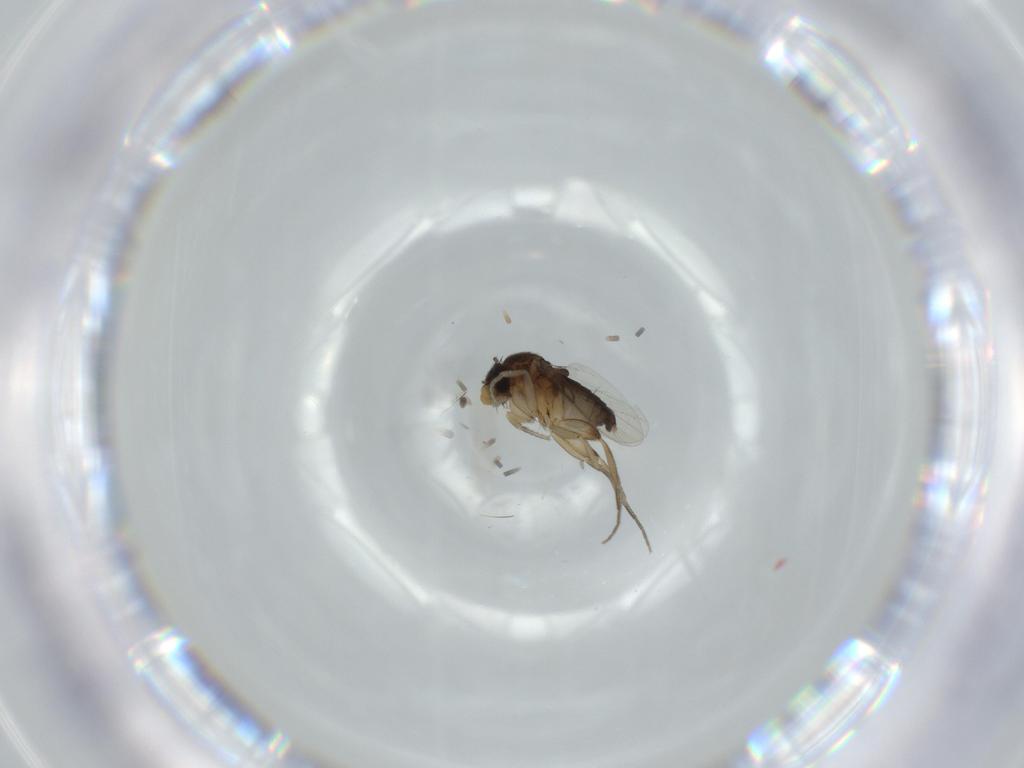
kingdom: Animalia
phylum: Arthropoda
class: Insecta
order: Diptera
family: Phoridae
